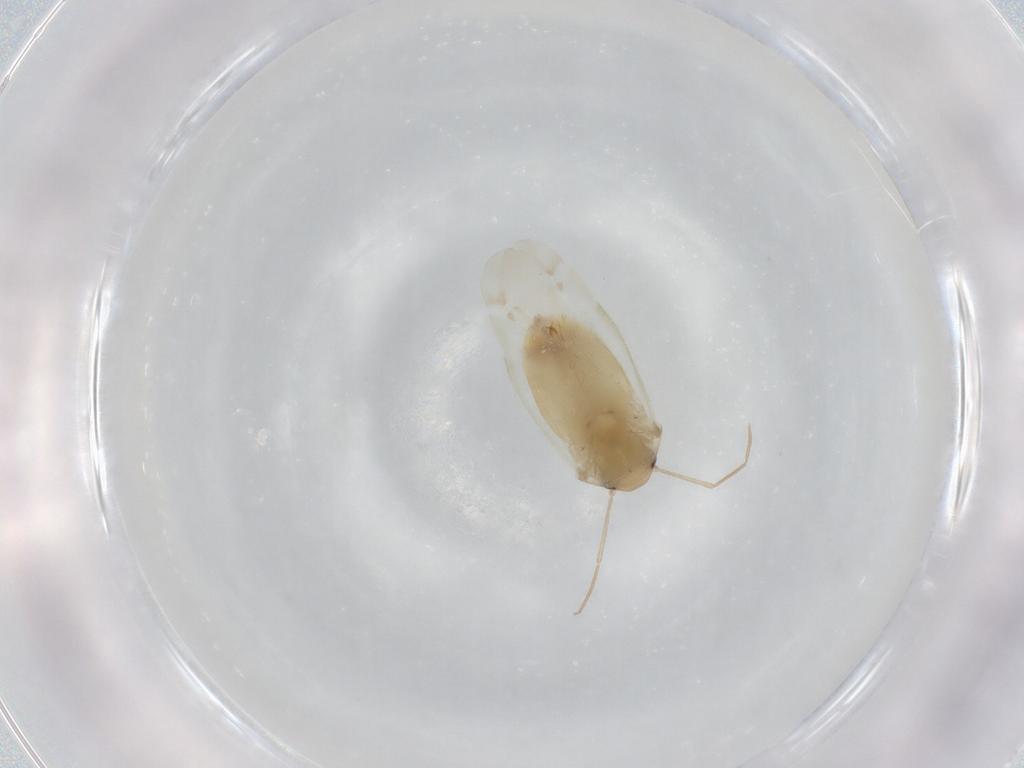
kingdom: Animalia
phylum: Arthropoda
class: Insecta
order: Hemiptera
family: Miridae
